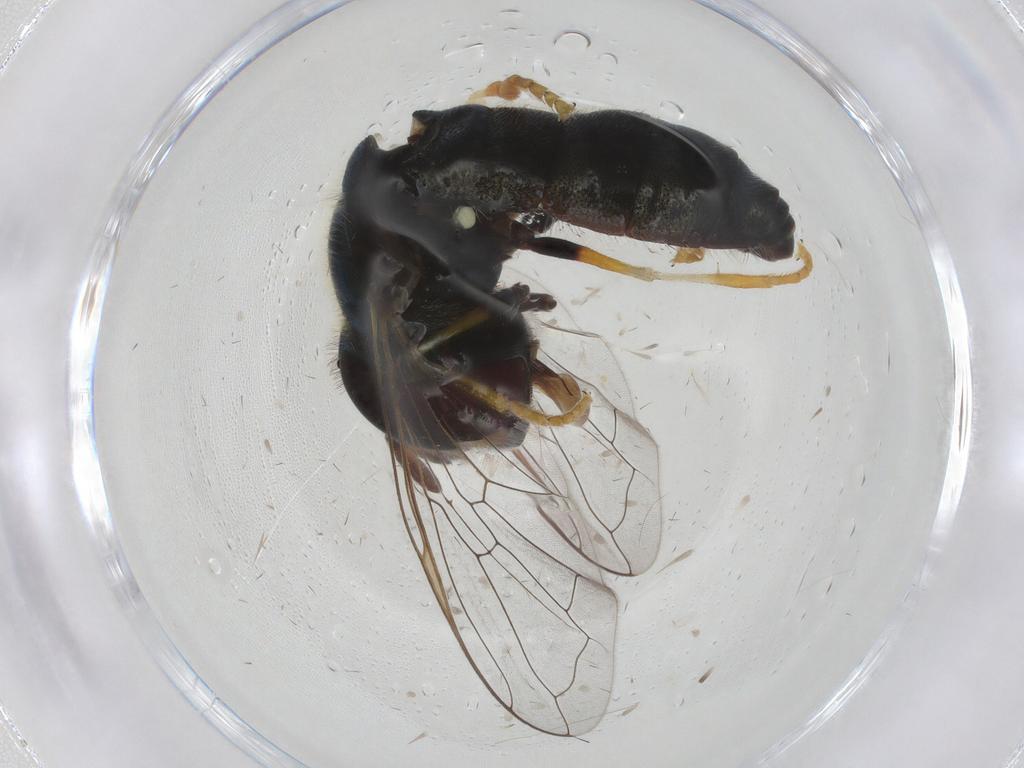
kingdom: Animalia
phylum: Arthropoda
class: Insecta
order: Diptera
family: Syrphidae
